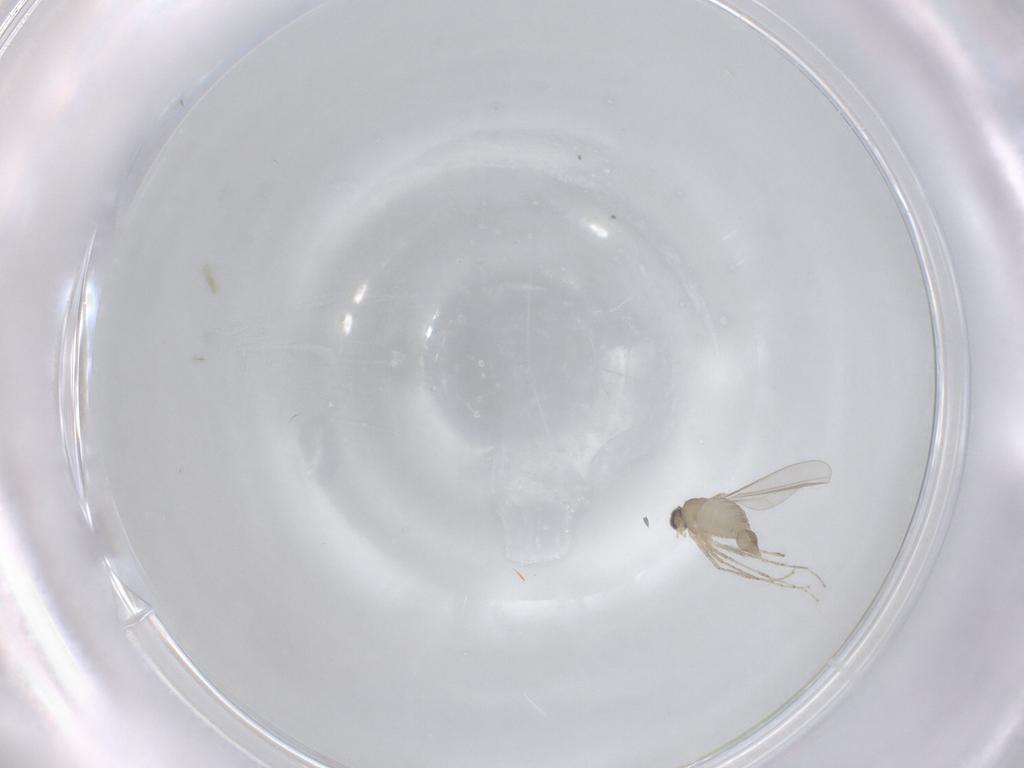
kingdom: Animalia
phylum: Arthropoda
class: Insecta
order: Diptera
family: Cecidomyiidae
